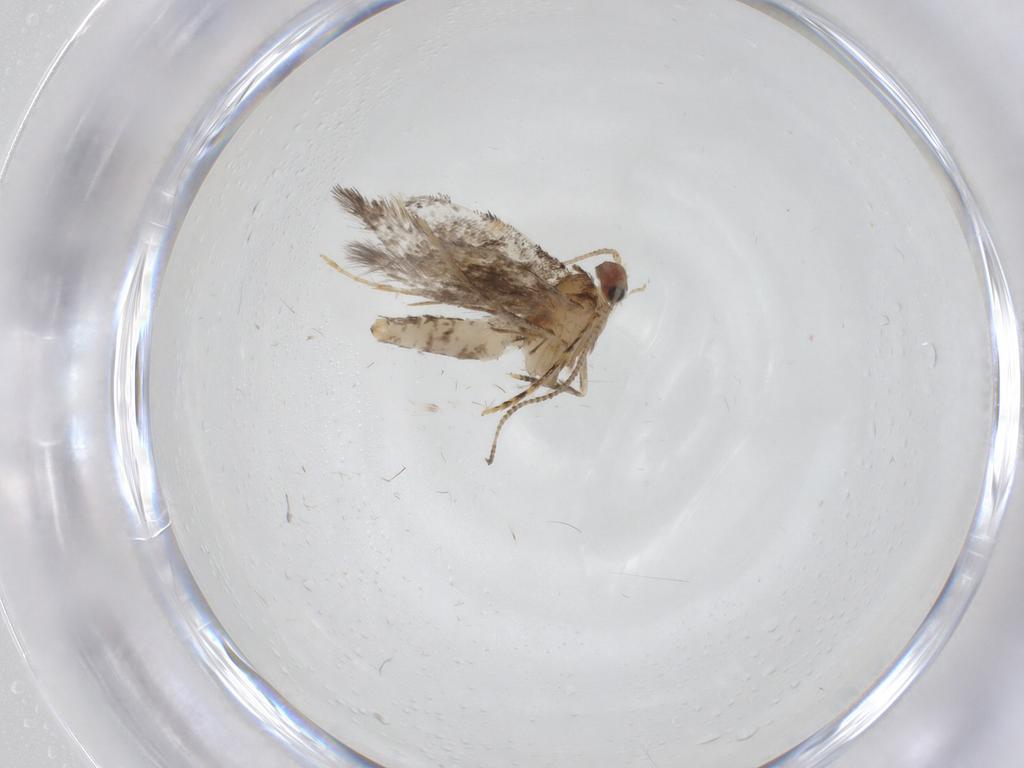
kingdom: Animalia
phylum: Arthropoda
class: Insecta
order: Lepidoptera
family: Tineidae
